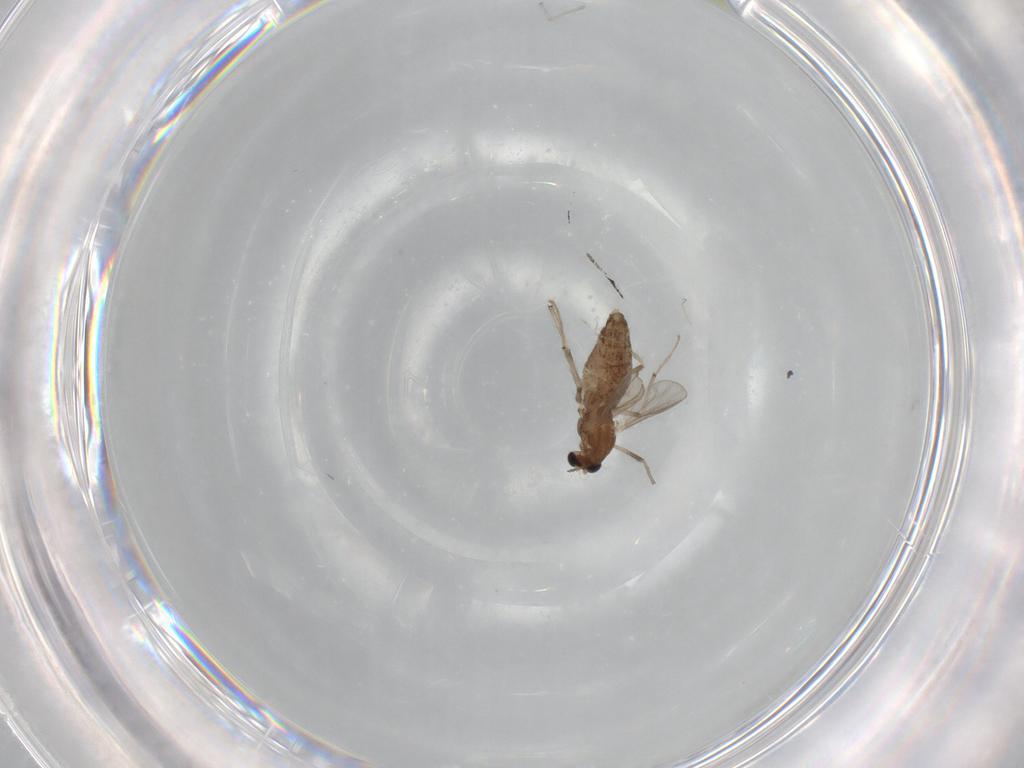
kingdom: Animalia
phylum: Arthropoda
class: Insecta
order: Diptera
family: Chironomidae
